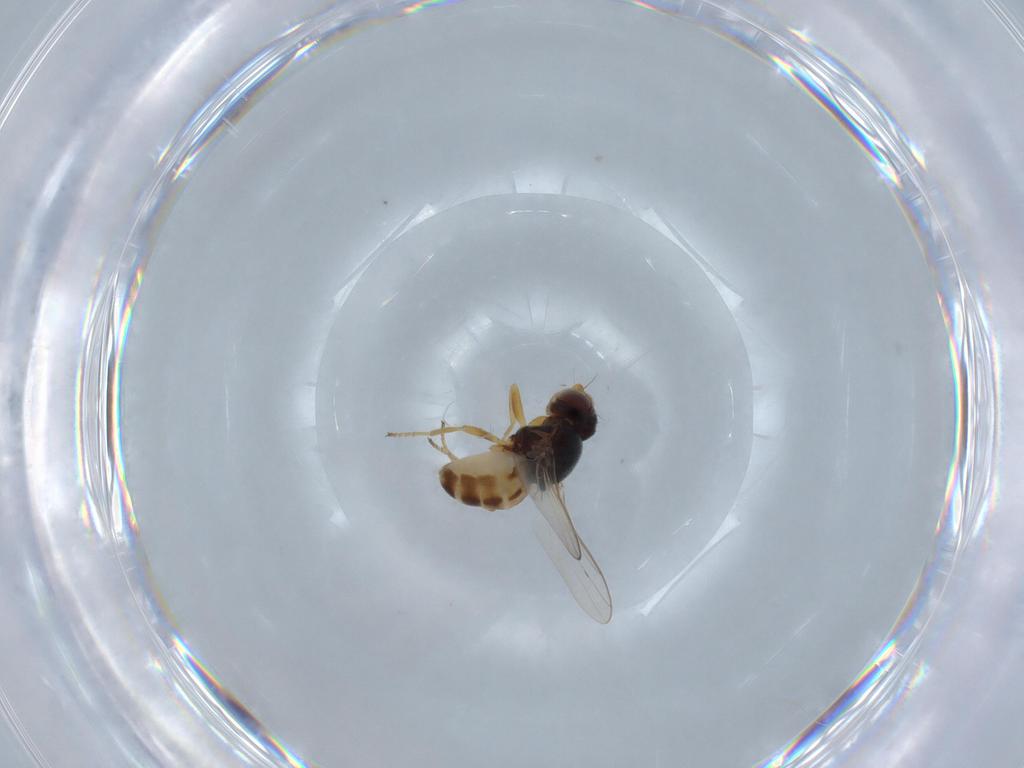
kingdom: Animalia
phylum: Arthropoda
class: Insecta
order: Diptera
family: Chloropidae
